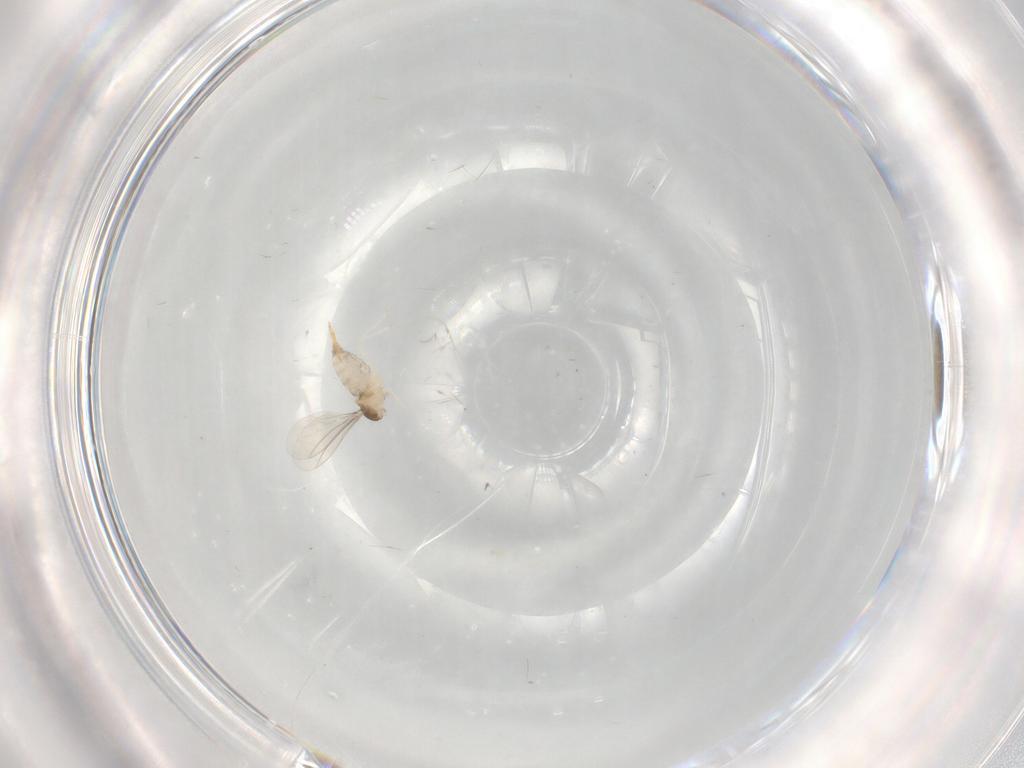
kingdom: Animalia
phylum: Arthropoda
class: Insecta
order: Diptera
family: Cecidomyiidae
